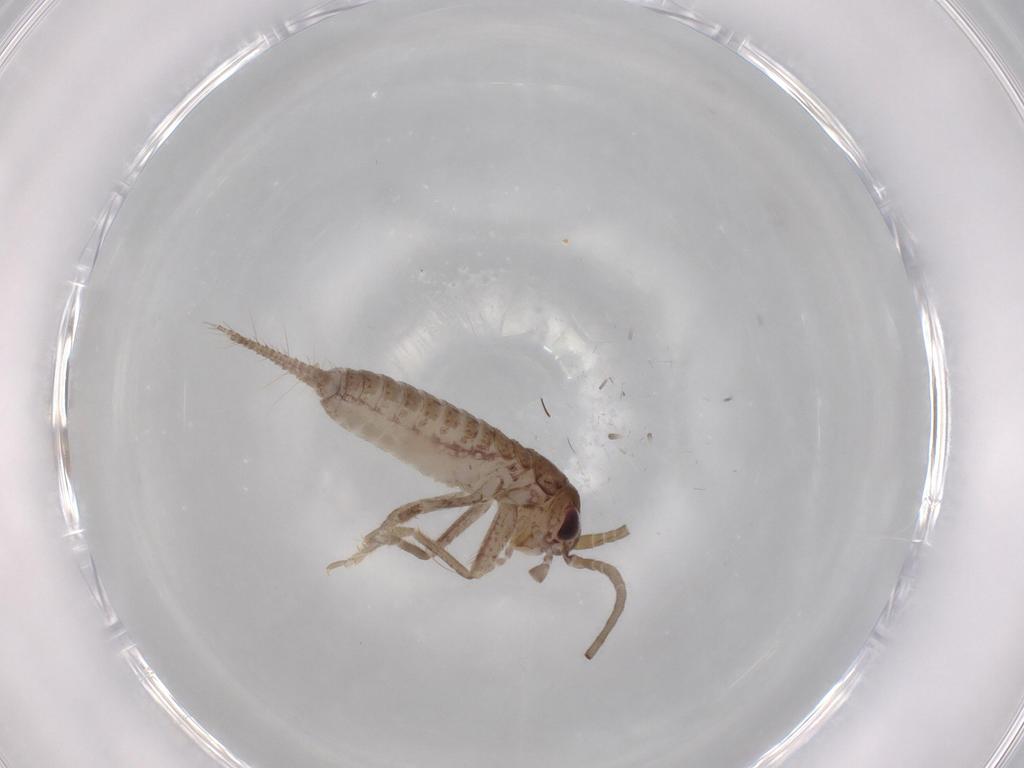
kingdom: Animalia
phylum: Arthropoda
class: Insecta
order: Orthoptera
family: Gryllidae
